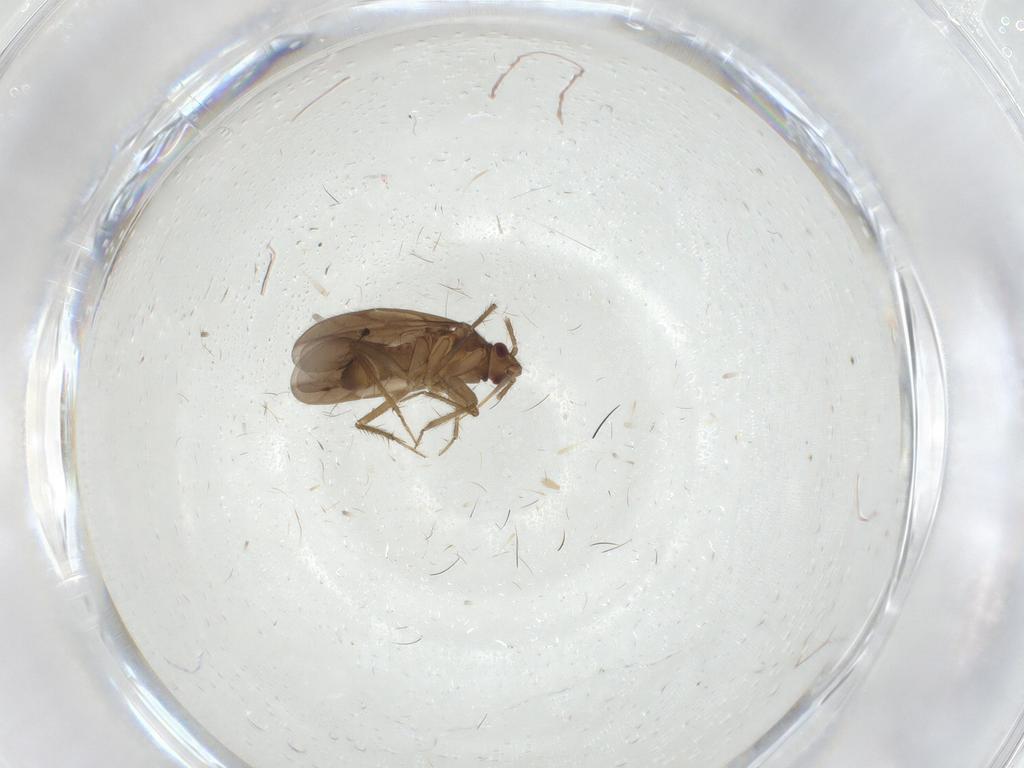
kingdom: Animalia
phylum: Arthropoda
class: Insecta
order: Hemiptera
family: Ceratocombidae
